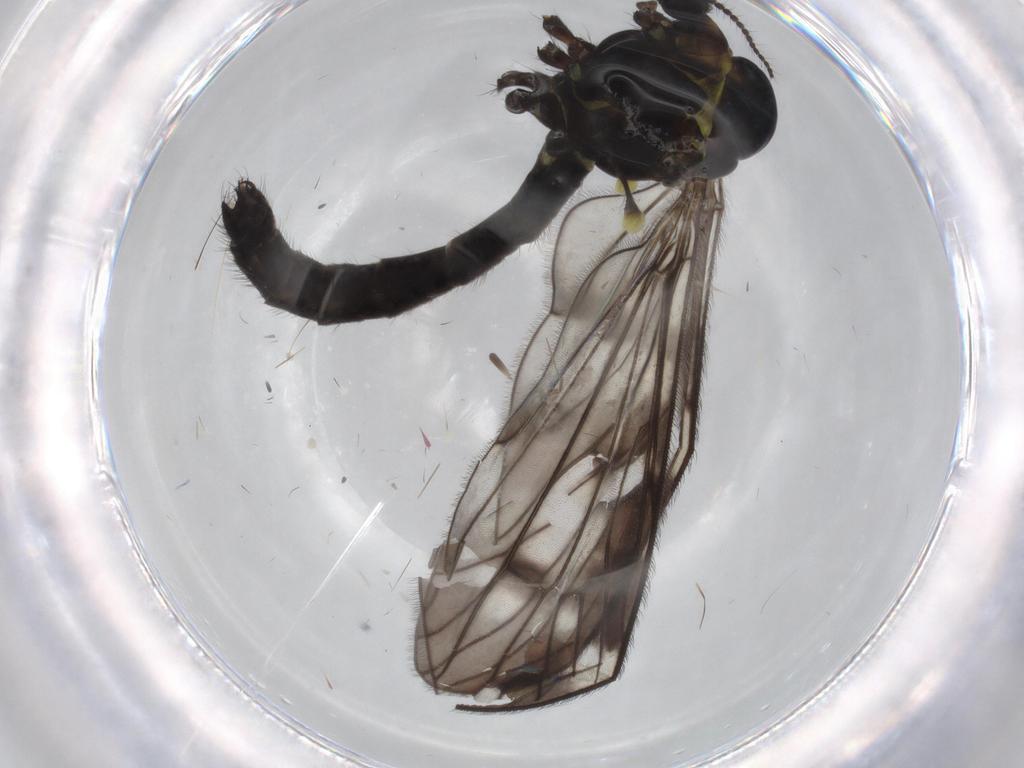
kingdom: Animalia
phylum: Arthropoda
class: Insecta
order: Diptera
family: Limoniidae
